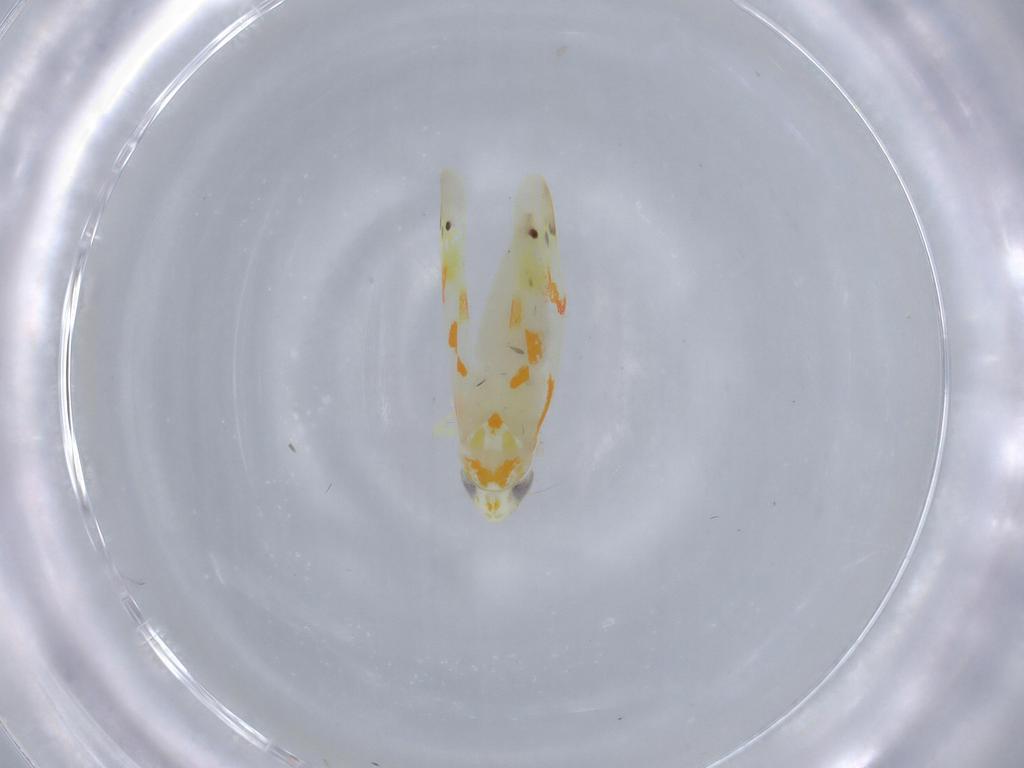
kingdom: Animalia
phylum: Arthropoda
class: Insecta
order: Hemiptera
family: Cicadellidae
